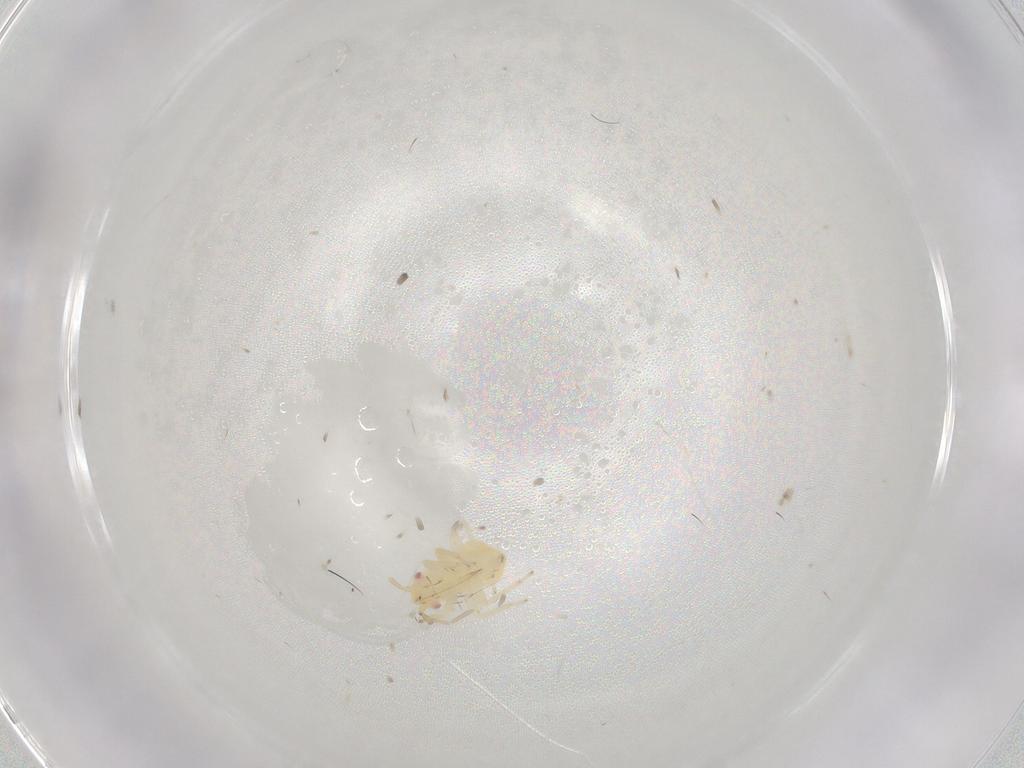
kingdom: Animalia
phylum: Arthropoda
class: Insecta
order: Hemiptera
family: Miridae
